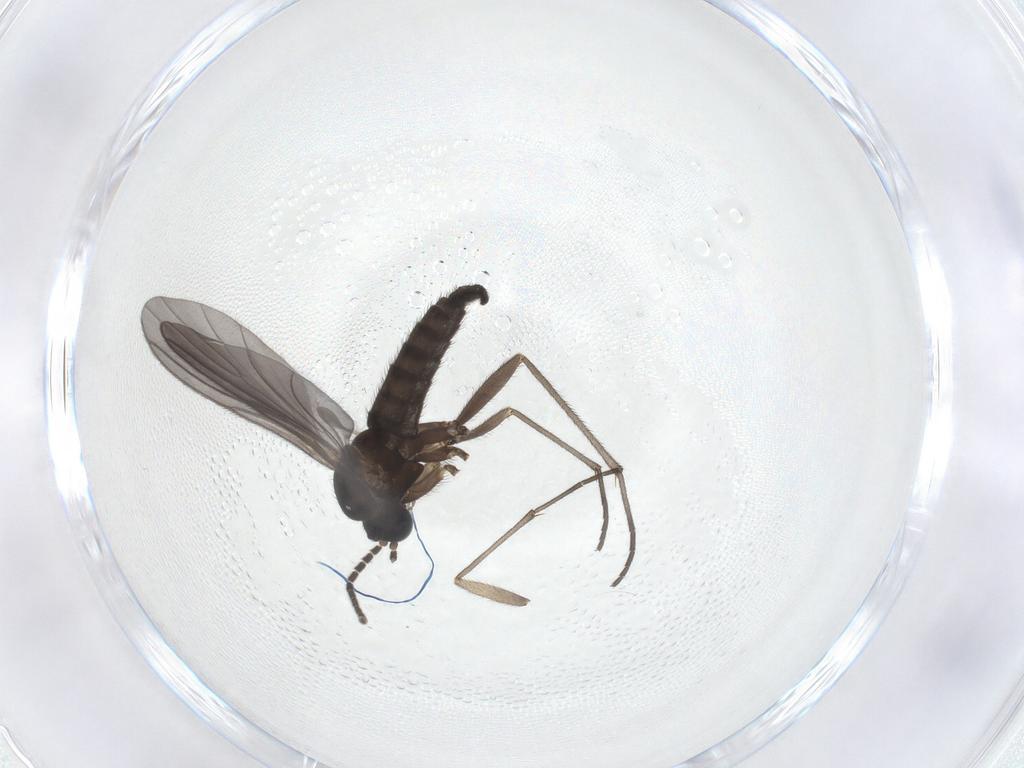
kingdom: Animalia
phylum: Arthropoda
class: Insecta
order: Diptera
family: Sciaridae
